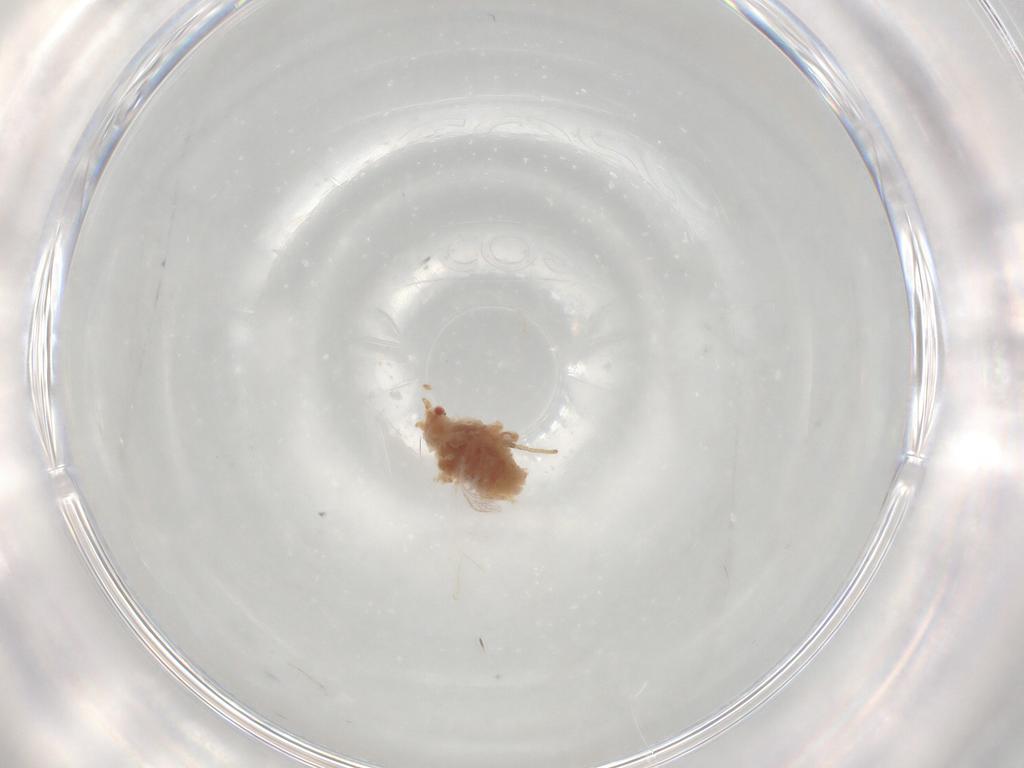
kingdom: Animalia
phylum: Arthropoda
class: Insecta
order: Hemiptera
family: Aphididae
